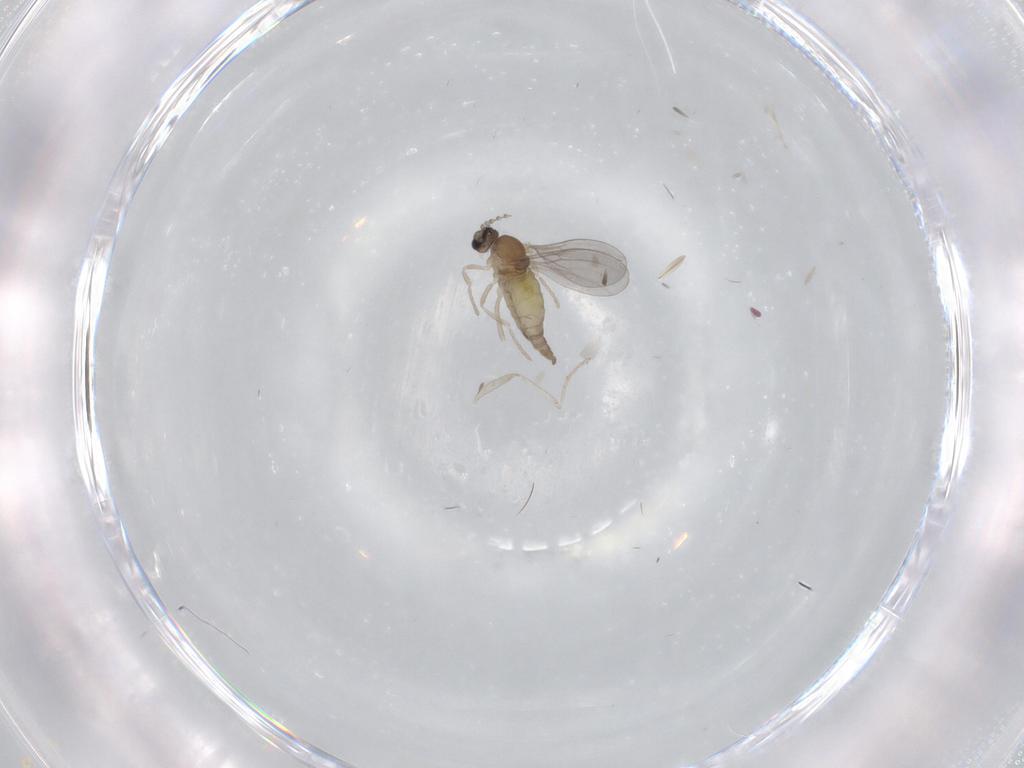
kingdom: Animalia
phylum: Arthropoda
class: Insecta
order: Diptera
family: Cecidomyiidae
